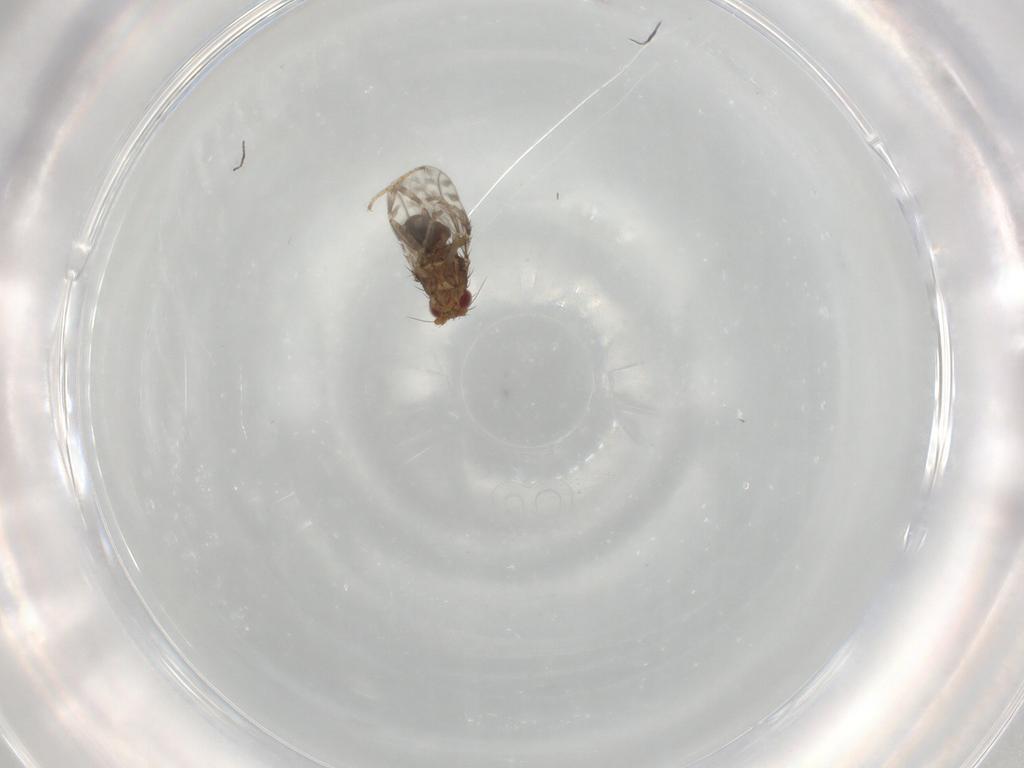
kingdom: Animalia
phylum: Arthropoda
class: Insecta
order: Diptera
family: Sphaeroceridae
